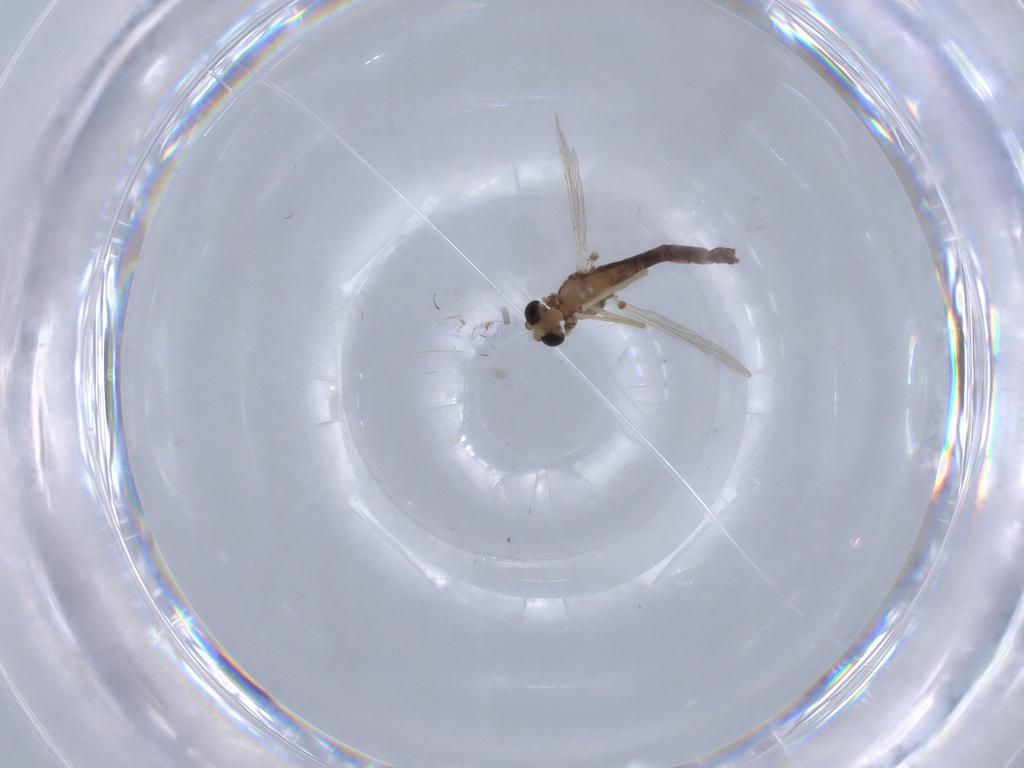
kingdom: Animalia
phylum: Arthropoda
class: Insecta
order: Diptera
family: Chironomidae
